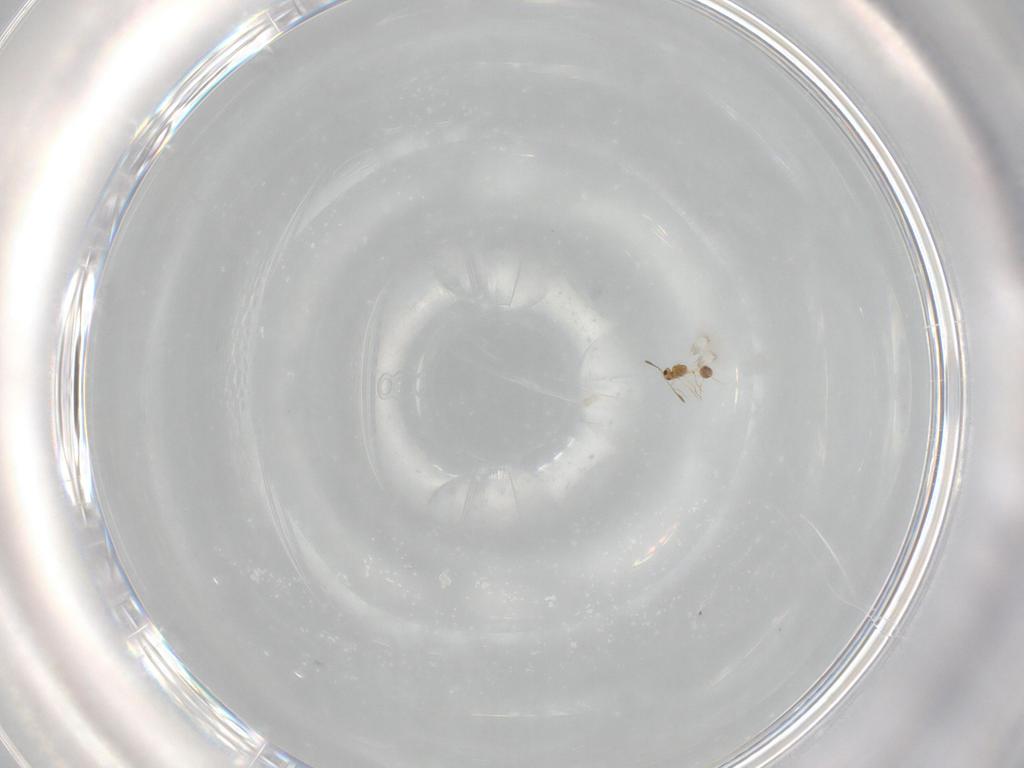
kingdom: Animalia
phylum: Arthropoda
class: Insecta
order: Hymenoptera
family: Mymarommatidae
